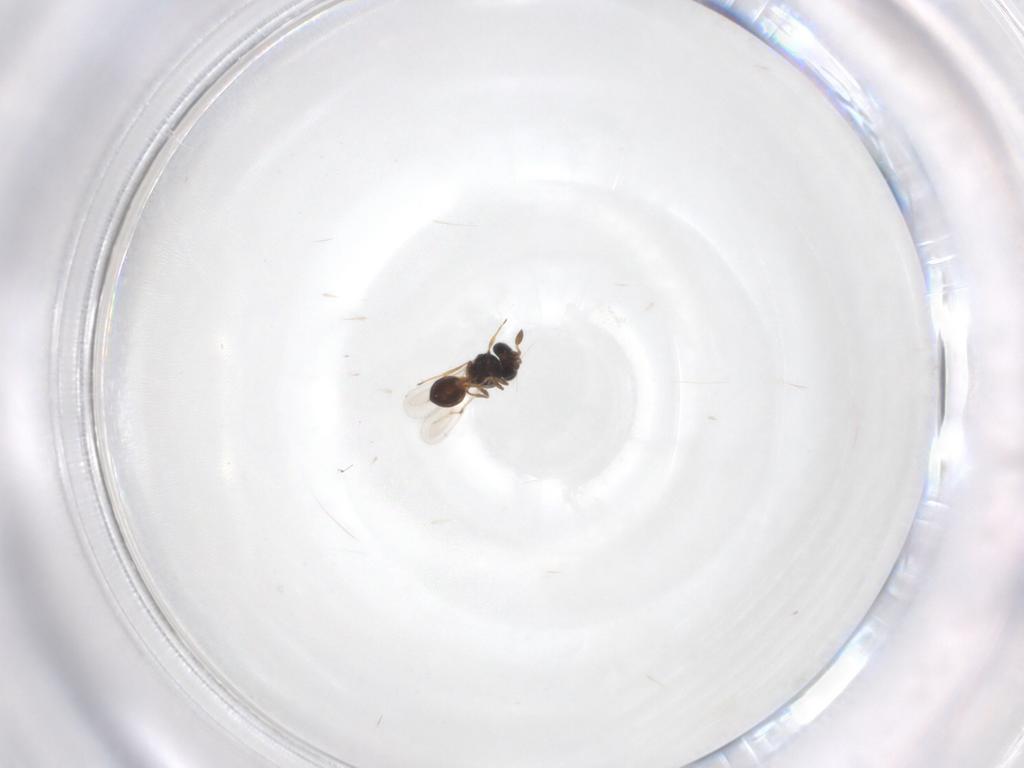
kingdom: Animalia
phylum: Arthropoda
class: Insecta
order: Hymenoptera
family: Scelionidae
